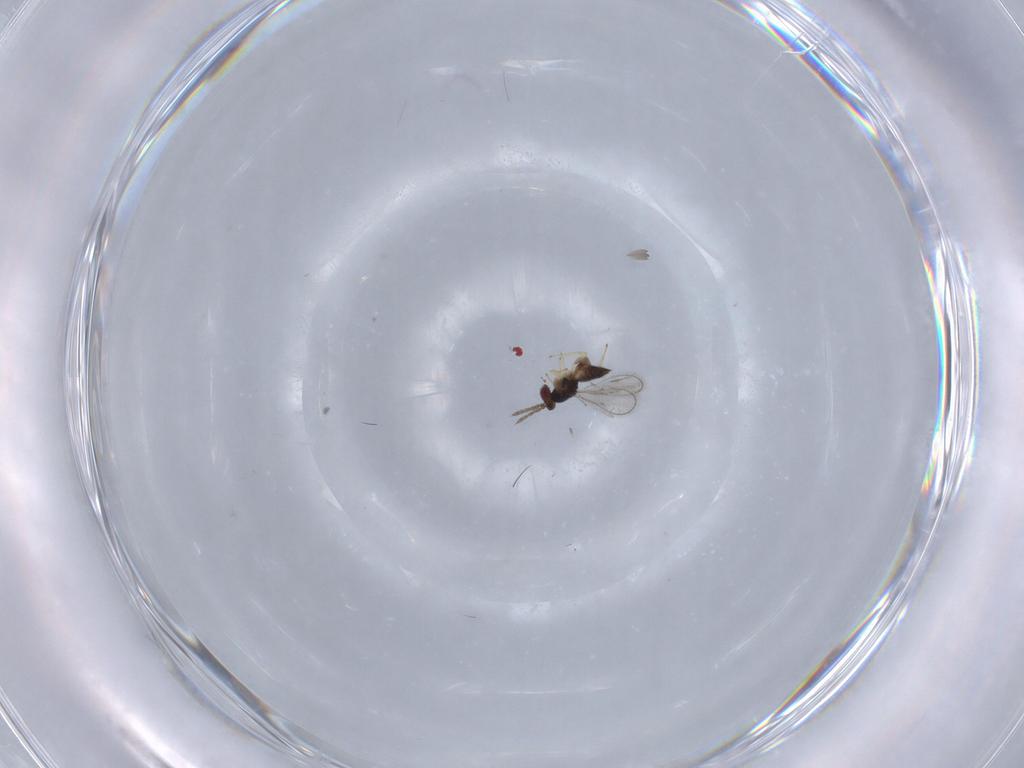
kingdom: Animalia
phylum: Arthropoda
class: Insecta
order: Hymenoptera
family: Eulophidae
